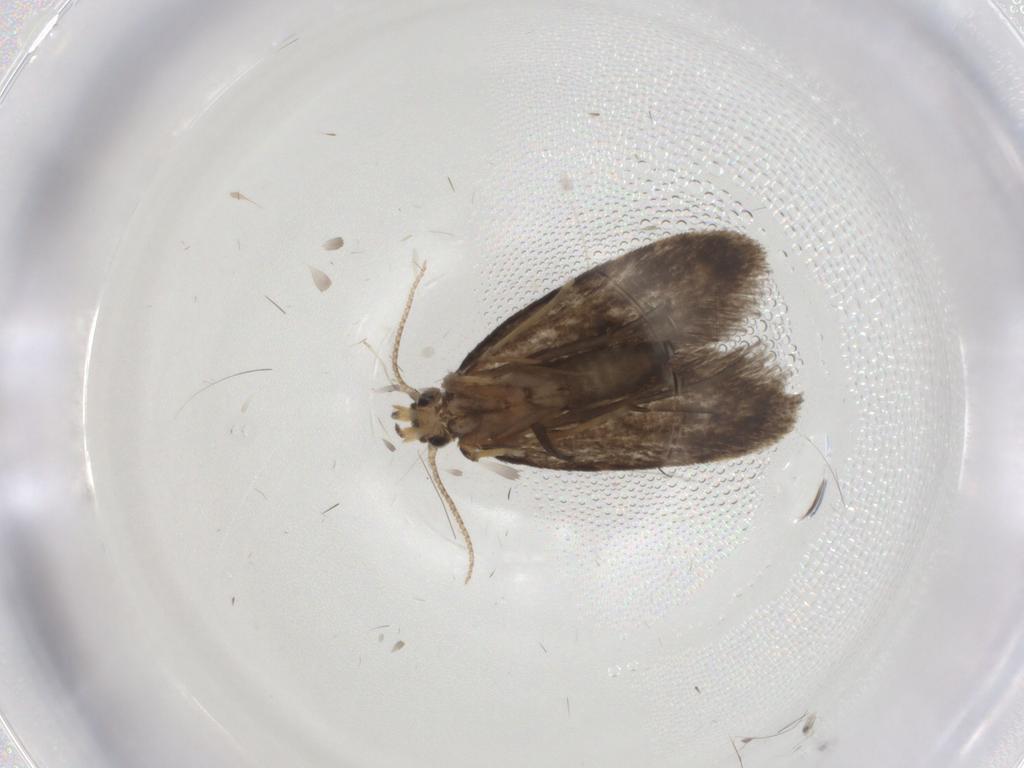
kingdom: Animalia
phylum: Arthropoda
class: Insecta
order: Lepidoptera
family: Psychidae
